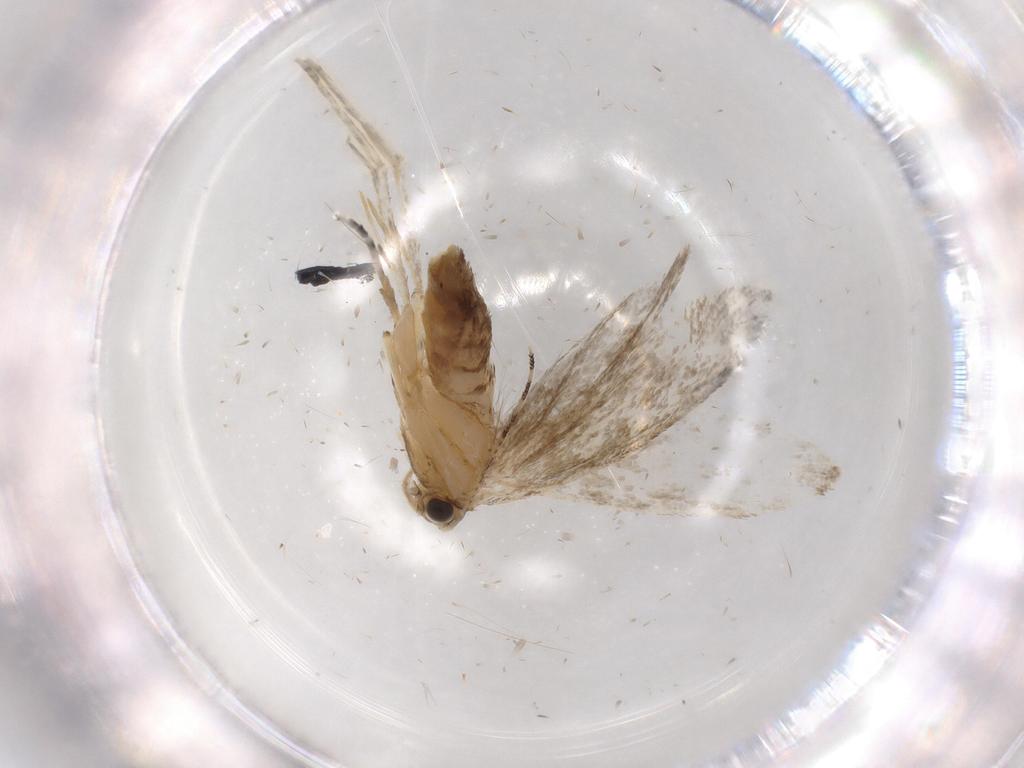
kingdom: Animalia
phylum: Arthropoda
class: Insecta
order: Lepidoptera
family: Tineidae
